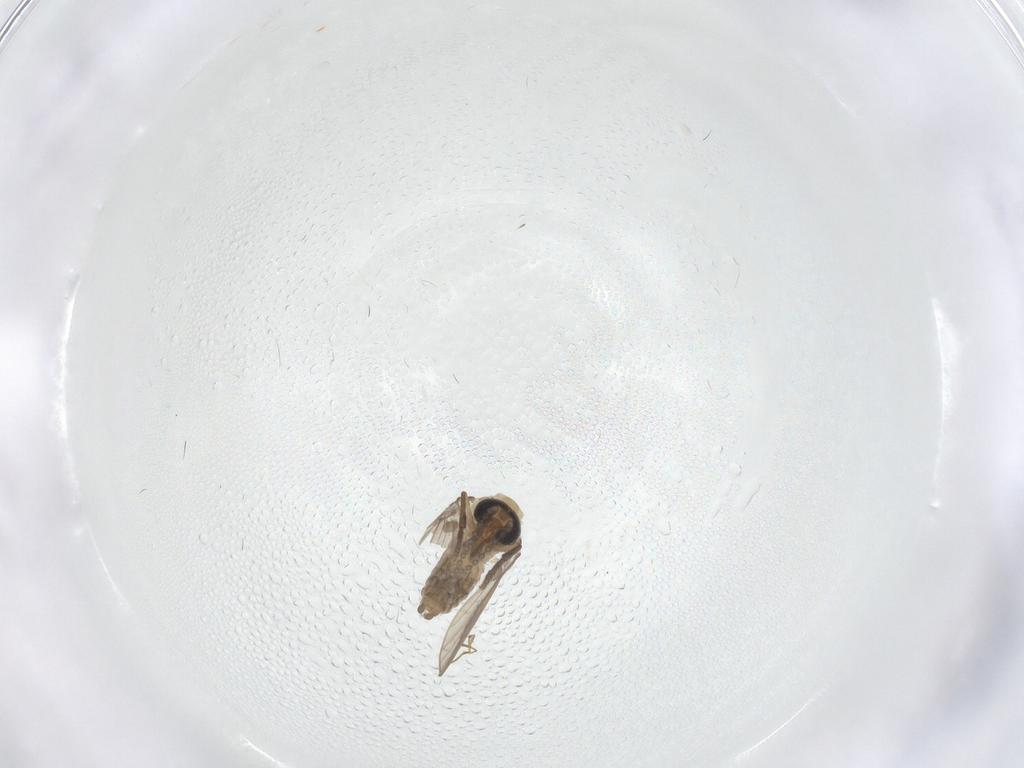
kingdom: Animalia
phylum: Arthropoda
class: Insecta
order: Diptera
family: Psychodidae
